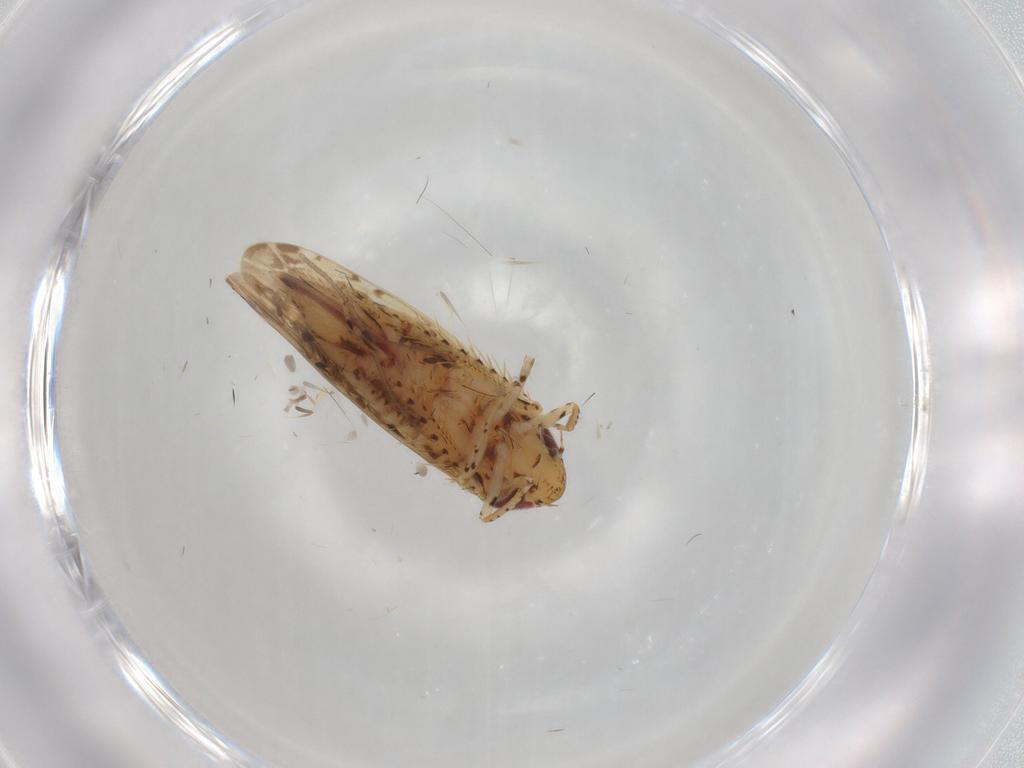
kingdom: Animalia
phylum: Arthropoda
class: Insecta
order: Hemiptera
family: Cicadellidae
